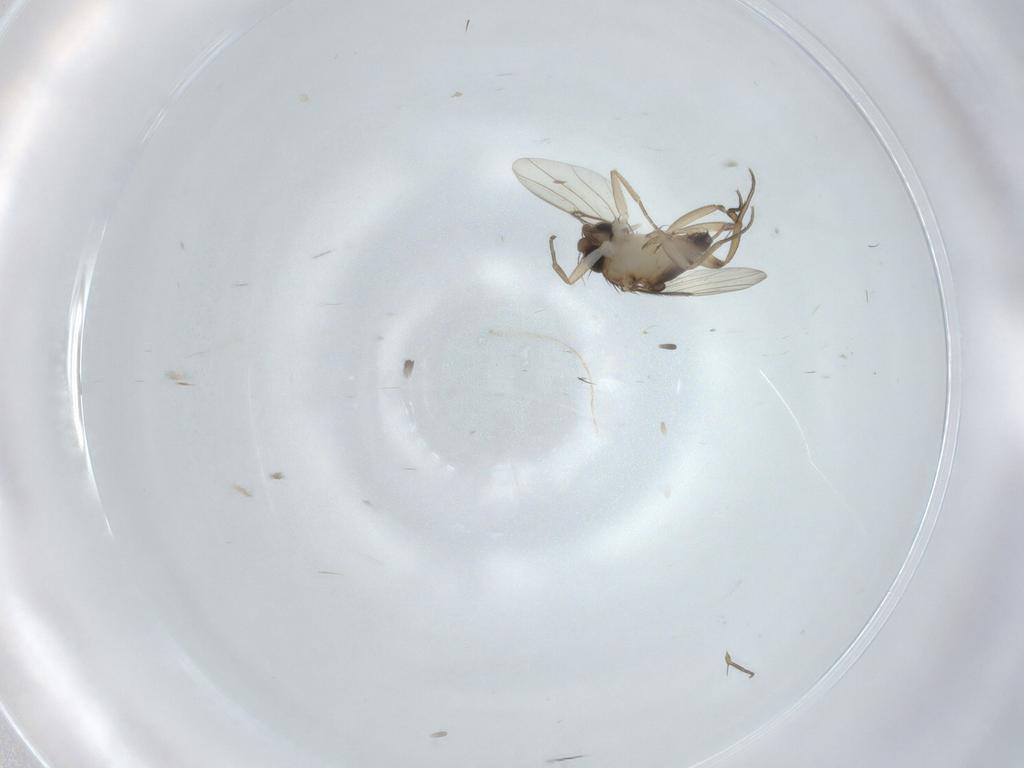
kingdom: Animalia
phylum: Arthropoda
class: Insecta
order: Diptera
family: Phoridae
